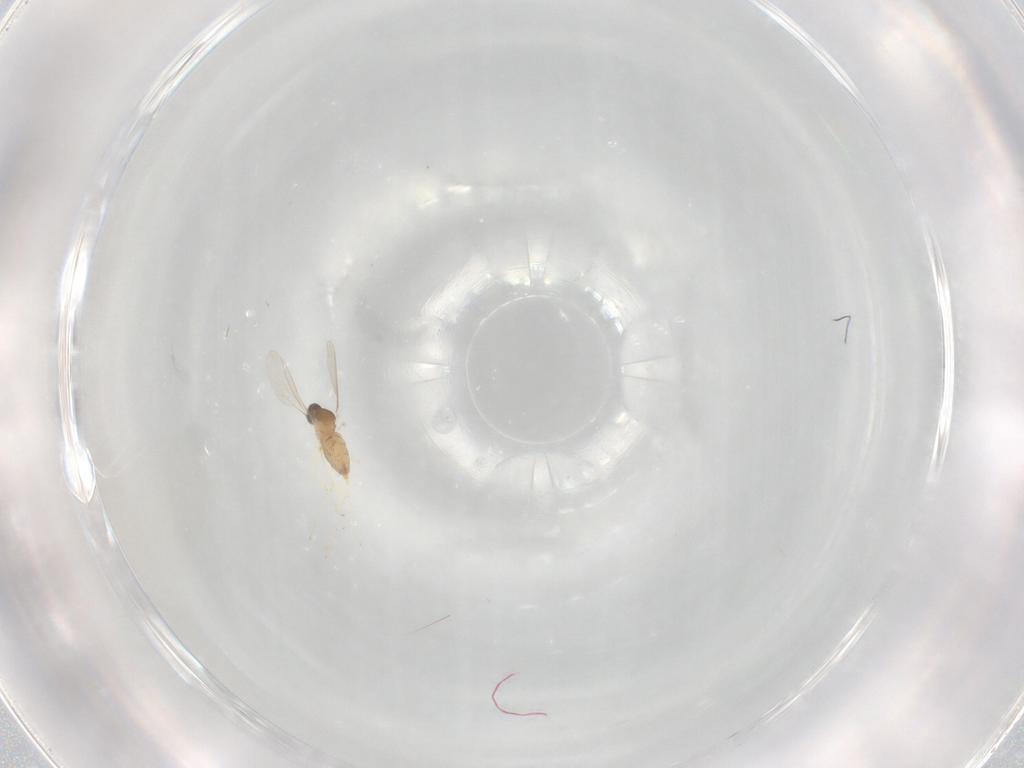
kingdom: Animalia
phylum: Arthropoda
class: Insecta
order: Diptera
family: Cecidomyiidae
